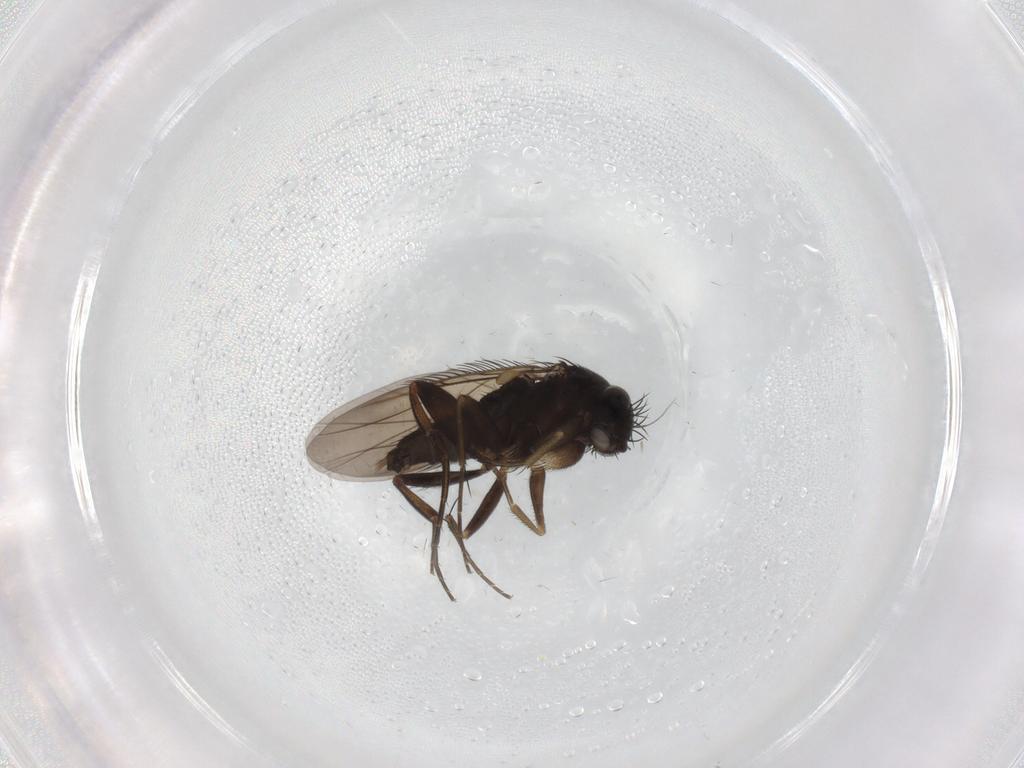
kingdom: Animalia
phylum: Arthropoda
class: Insecta
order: Diptera
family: Phoridae
